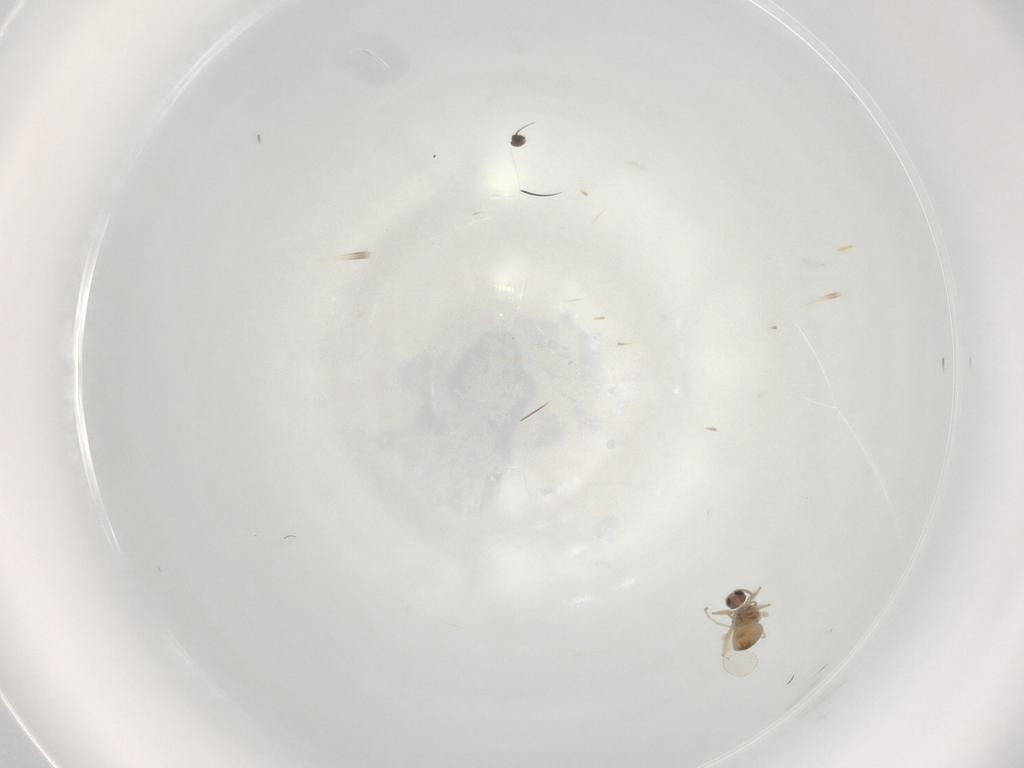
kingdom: Animalia
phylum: Arthropoda
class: Insecta
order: Diptera
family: Cecidomyiidae
